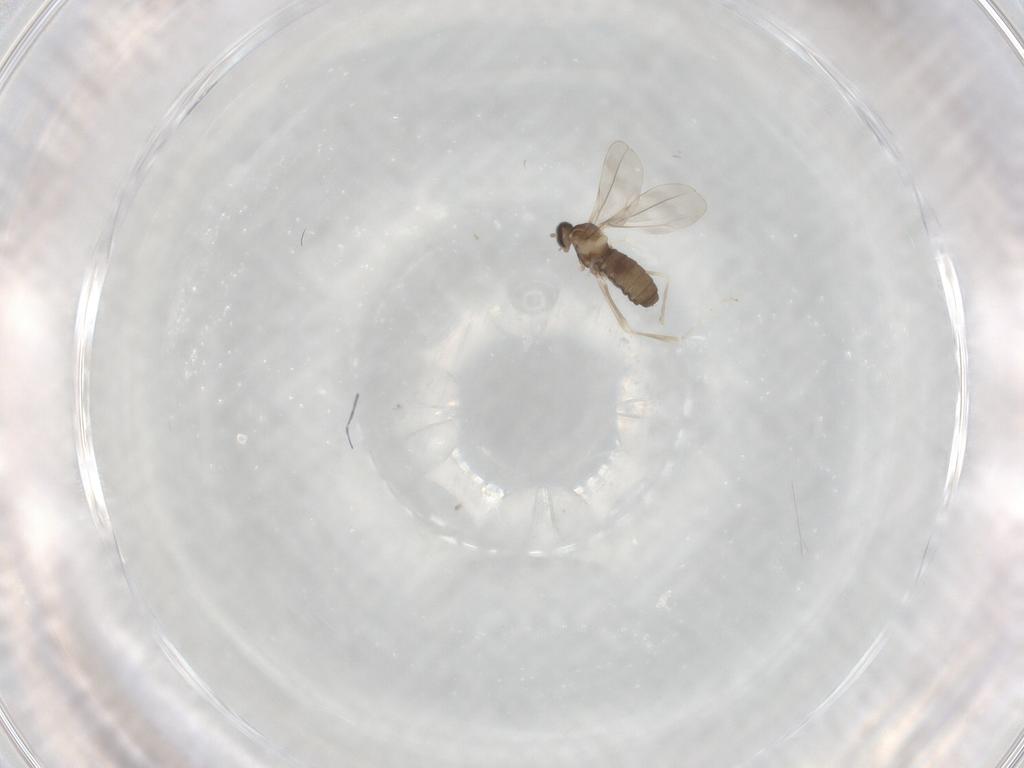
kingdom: Animalia
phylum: Arthropoda
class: Insecta
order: Diptera
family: Cecidomyiidae
